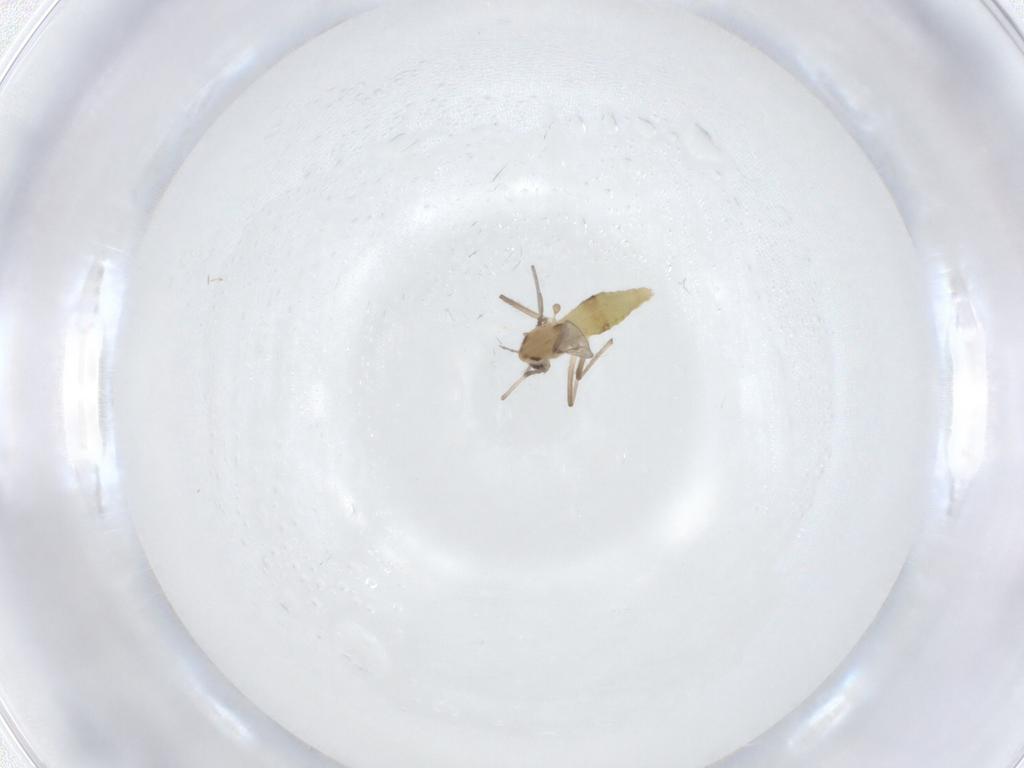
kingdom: Animalia
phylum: Arthropoda
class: Insecta
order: Diptera
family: Chironomidae
